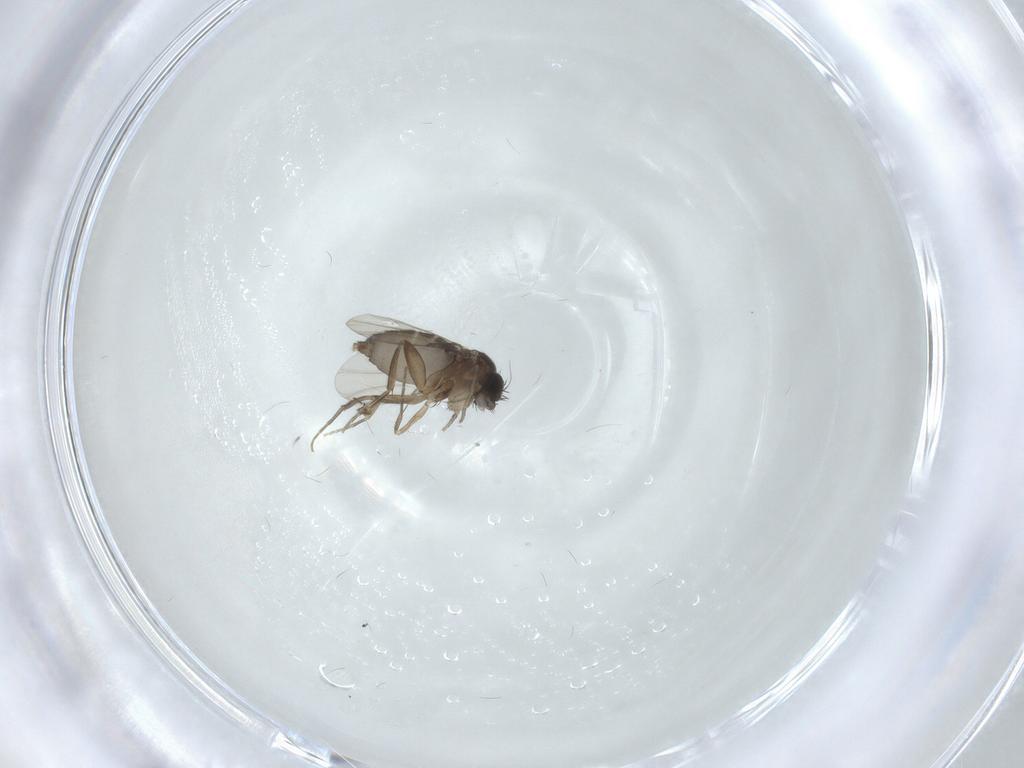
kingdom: Animalia
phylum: Arthropoda
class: Insecta
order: Diptera
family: Phoridae
